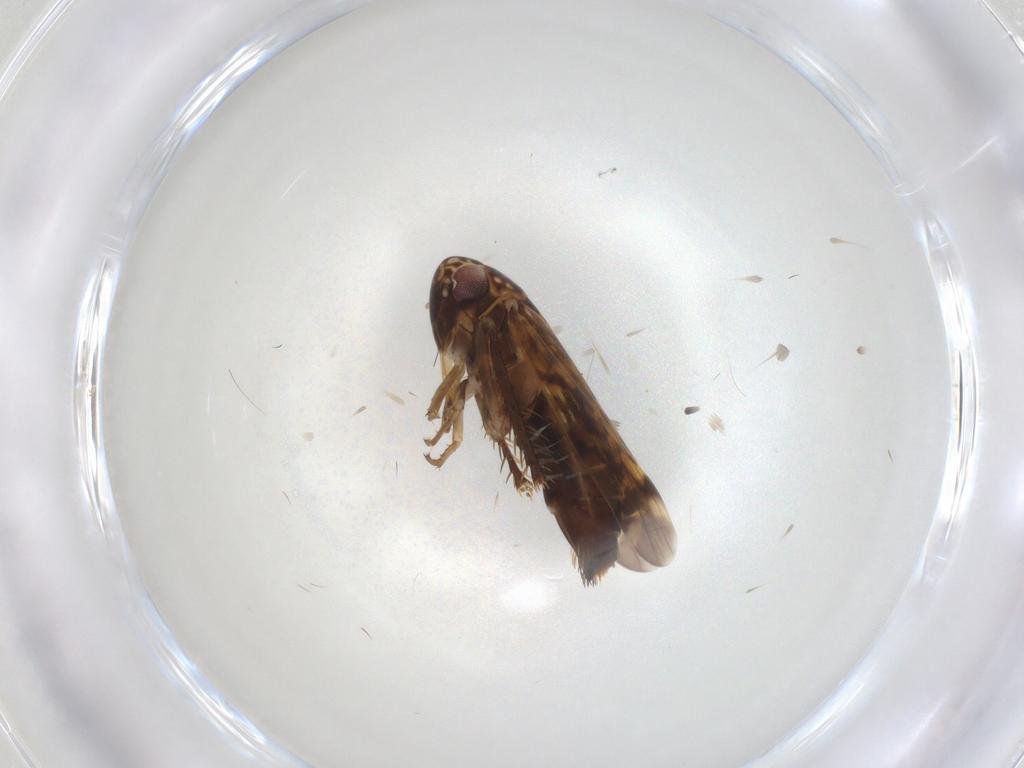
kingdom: Animalia
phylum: Arthropoda
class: Insecta
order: Hemiptera
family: Cicadellidae
